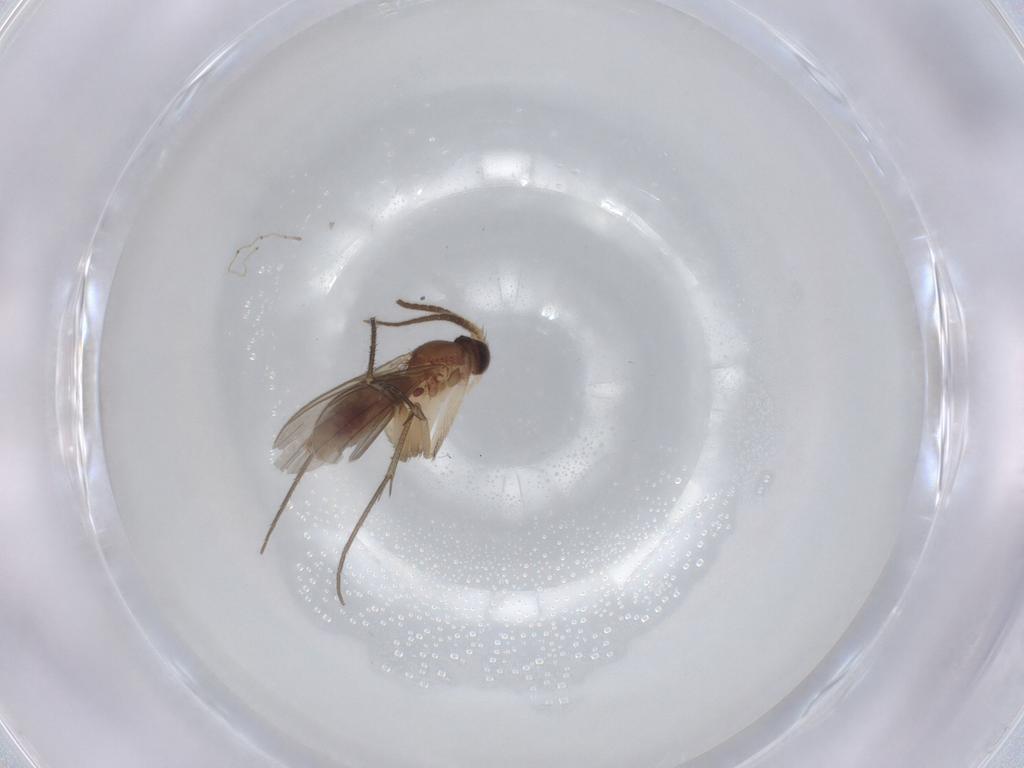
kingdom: Animalia
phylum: Arthropoda
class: Insecta
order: Diptera
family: Mycetophilidae
